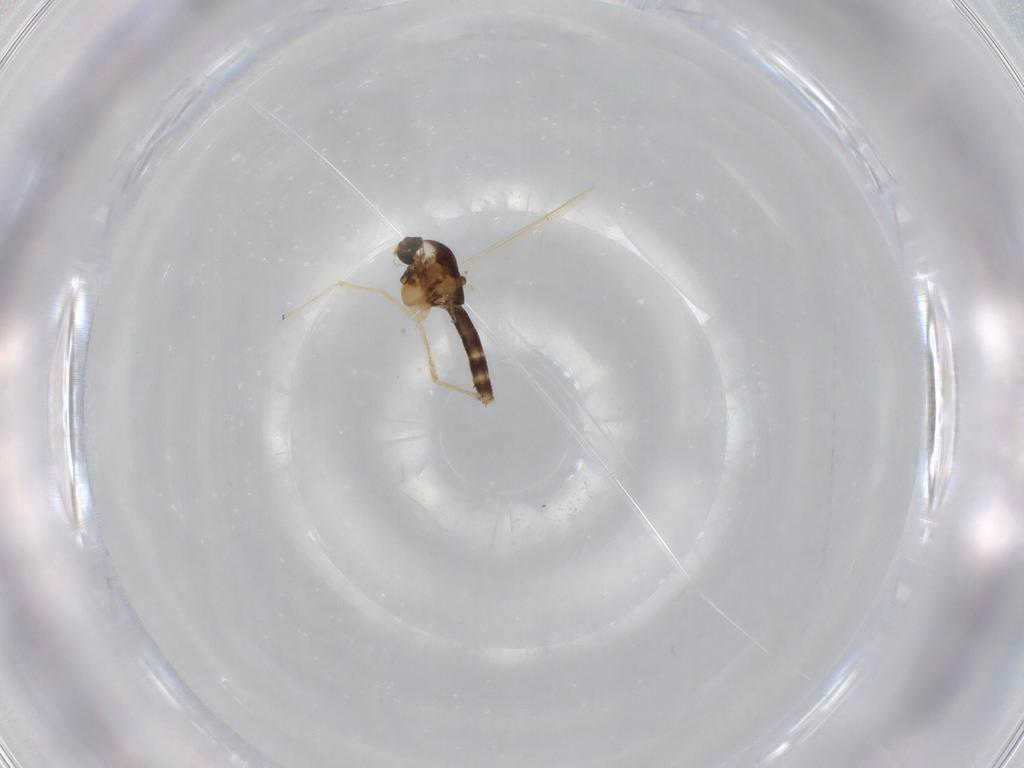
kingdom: Animalia
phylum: Arthropoda
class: Insecta
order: Diptera
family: Chironomidae
